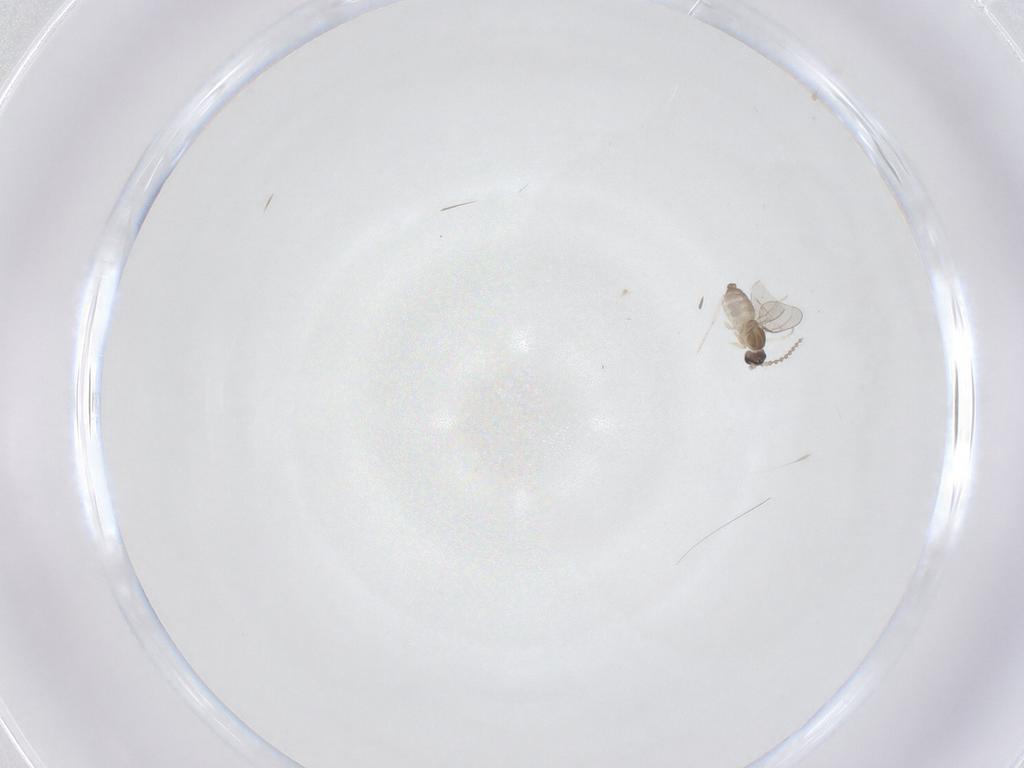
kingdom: Animalia
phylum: Arthropoda
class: Insecta
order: Diptera
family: Cecidomyiidae
